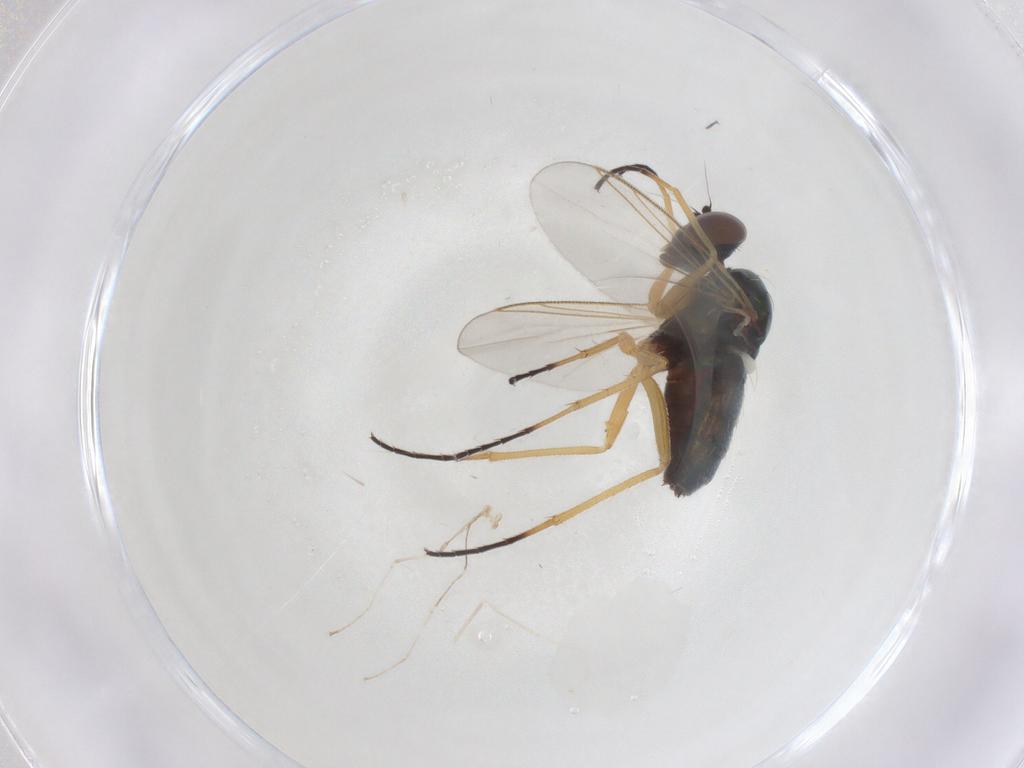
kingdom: Animalia
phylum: Arthropoda
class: Insecta
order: Diptera
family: Dolichopodidae
